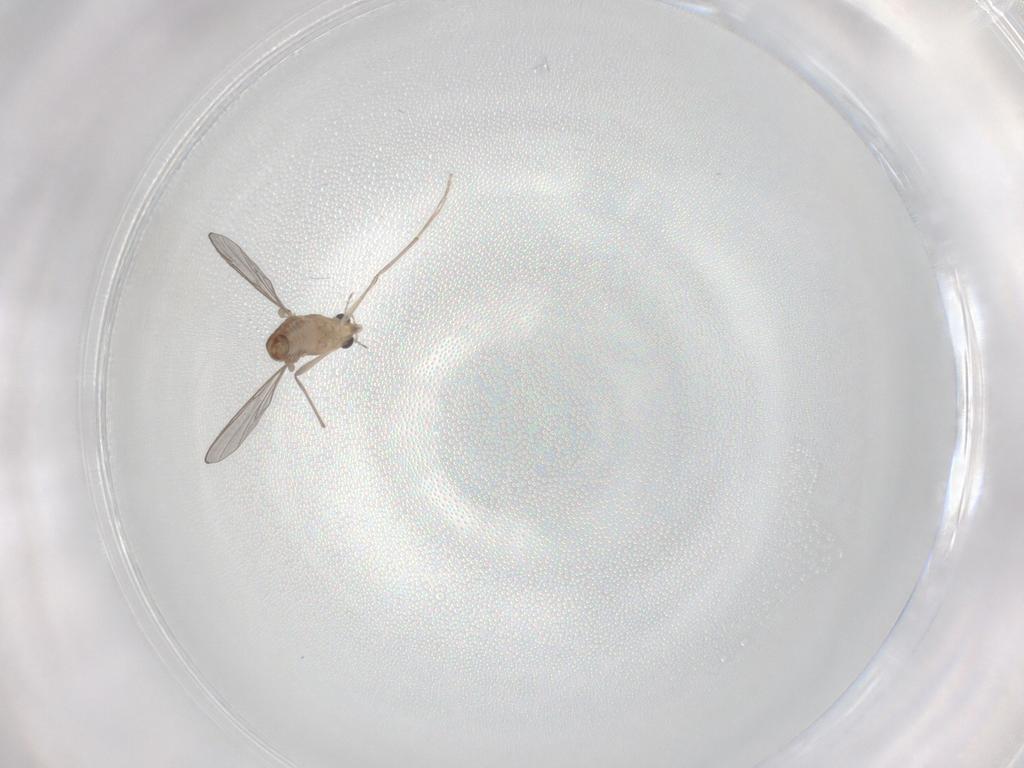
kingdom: Animalia
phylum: Arthropoda
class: Insecta
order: Diptera
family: Chironomidae
